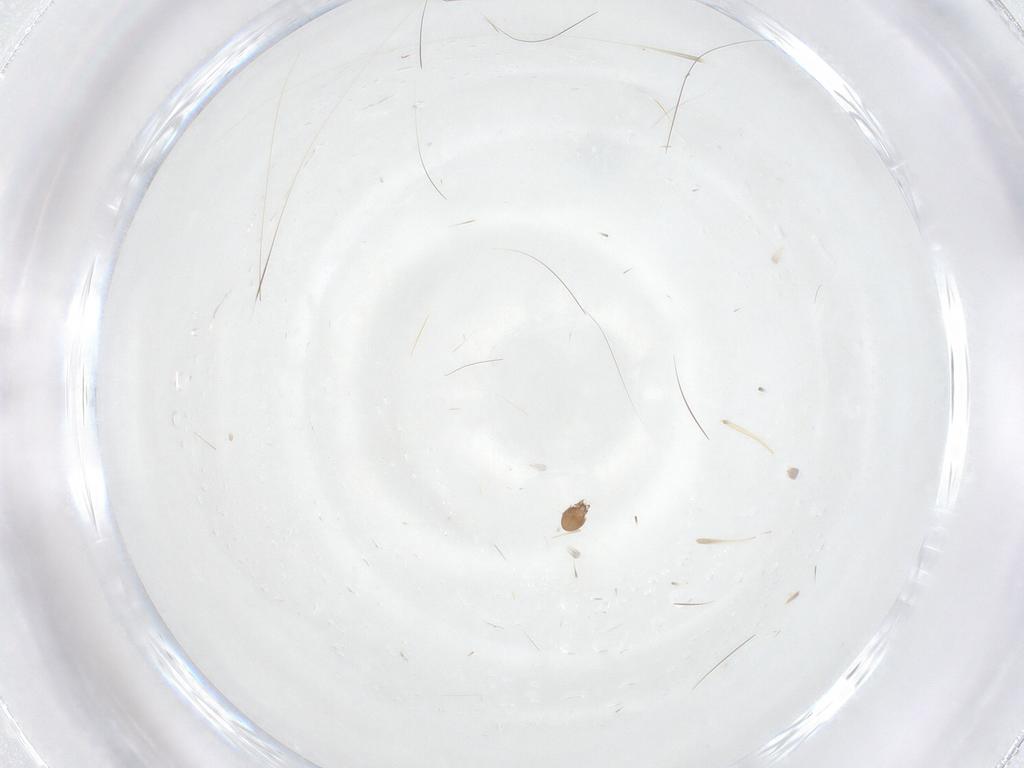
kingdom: Animalia
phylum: Arthropoda
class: Arachnida
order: Sarcoptiformes
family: Oribatellidae
